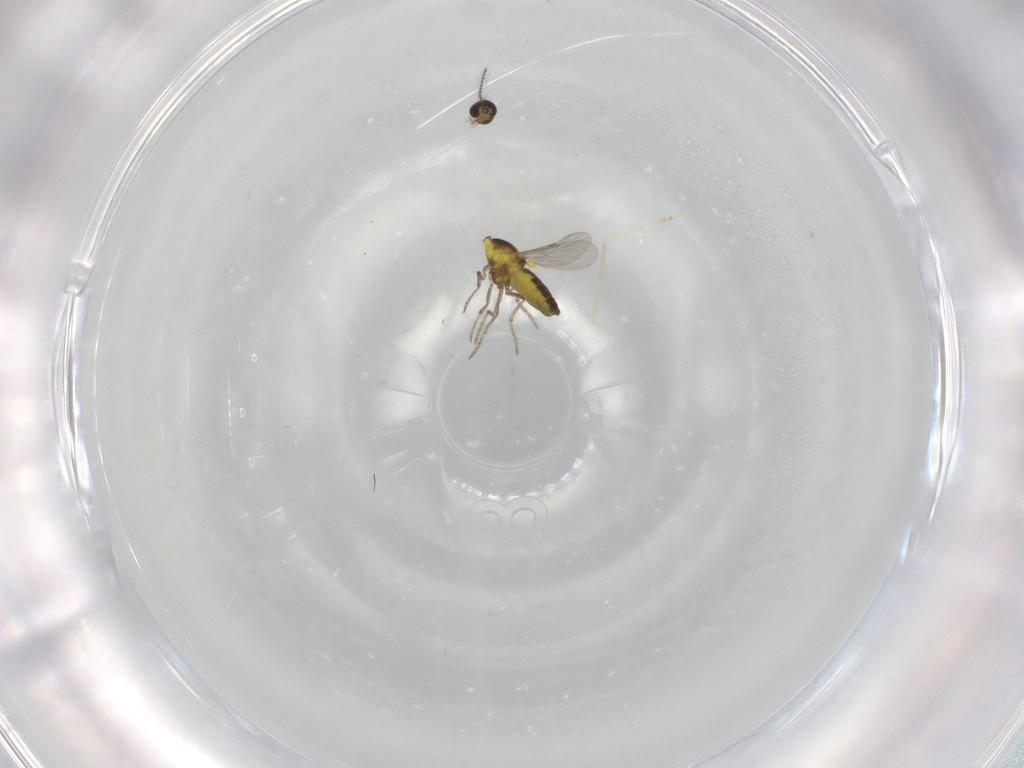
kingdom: Animalia
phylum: Arthropoda
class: Insecta
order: Diptera
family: Ceratopogonidae
